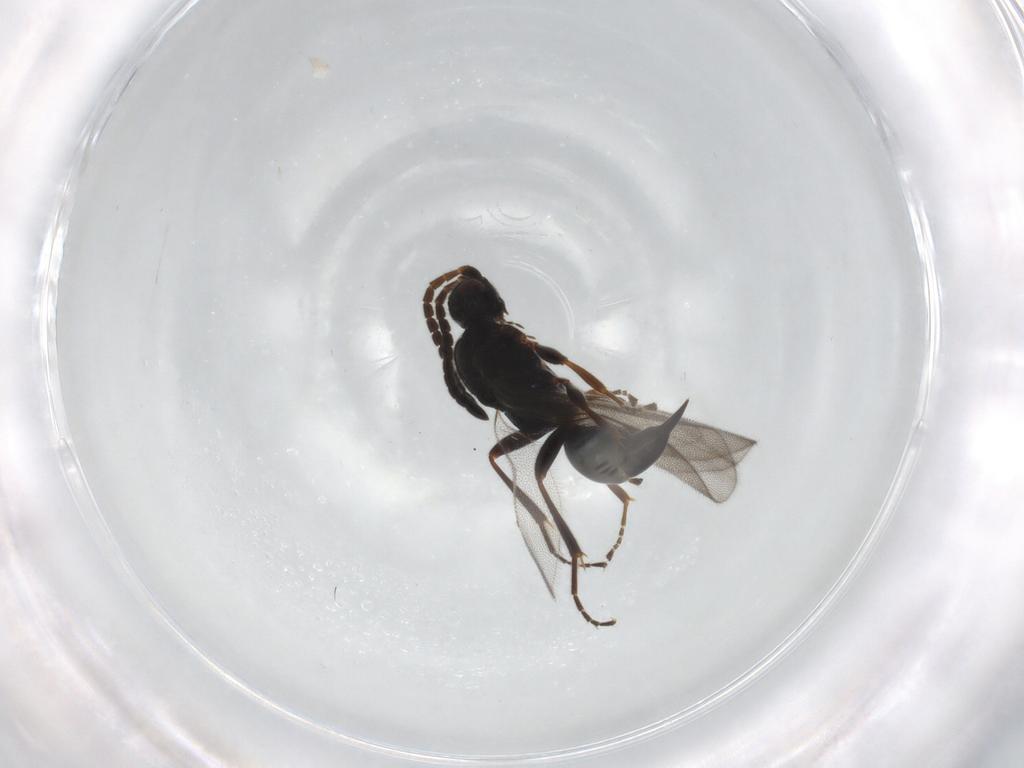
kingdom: Animalia
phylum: Arthropoda
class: Insecta
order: Hymenoptera
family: Proctotrupidae
